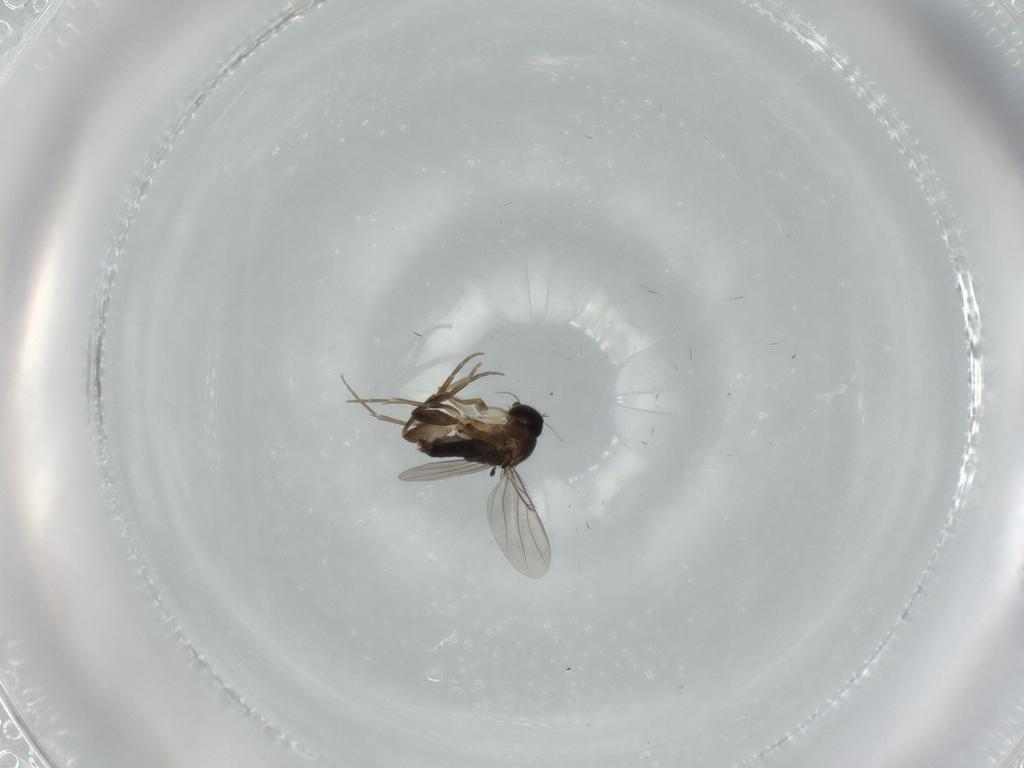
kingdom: Animalia
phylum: Arthropoda
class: Insecta
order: Diptera
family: Phoridae
